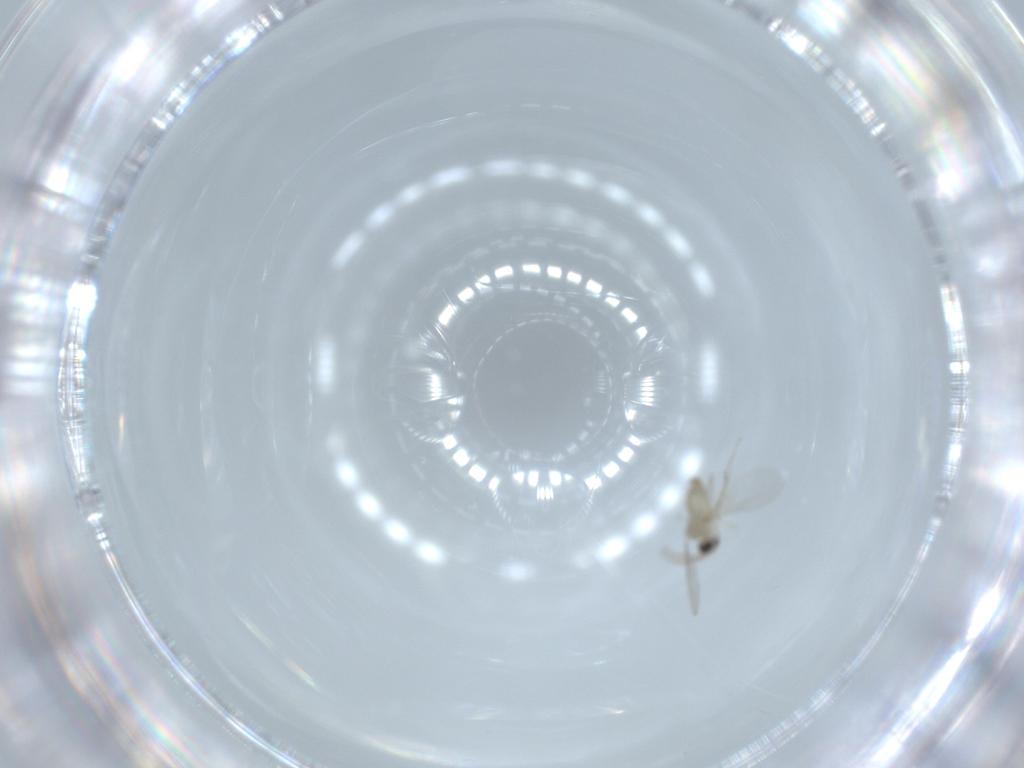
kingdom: Animalia
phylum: Arthropoda
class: Insecta
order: Diptera
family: Cecidomyiidae
